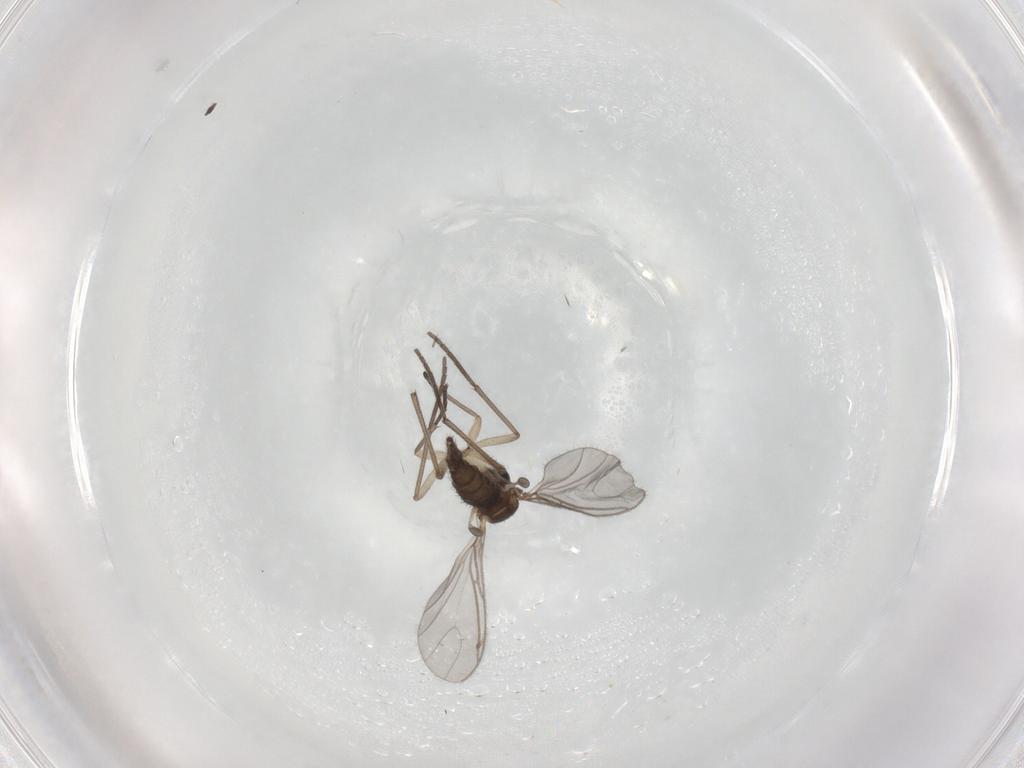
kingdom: Animalia
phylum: Arthropoda
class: Insecta
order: Diptera
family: Sciaridae
